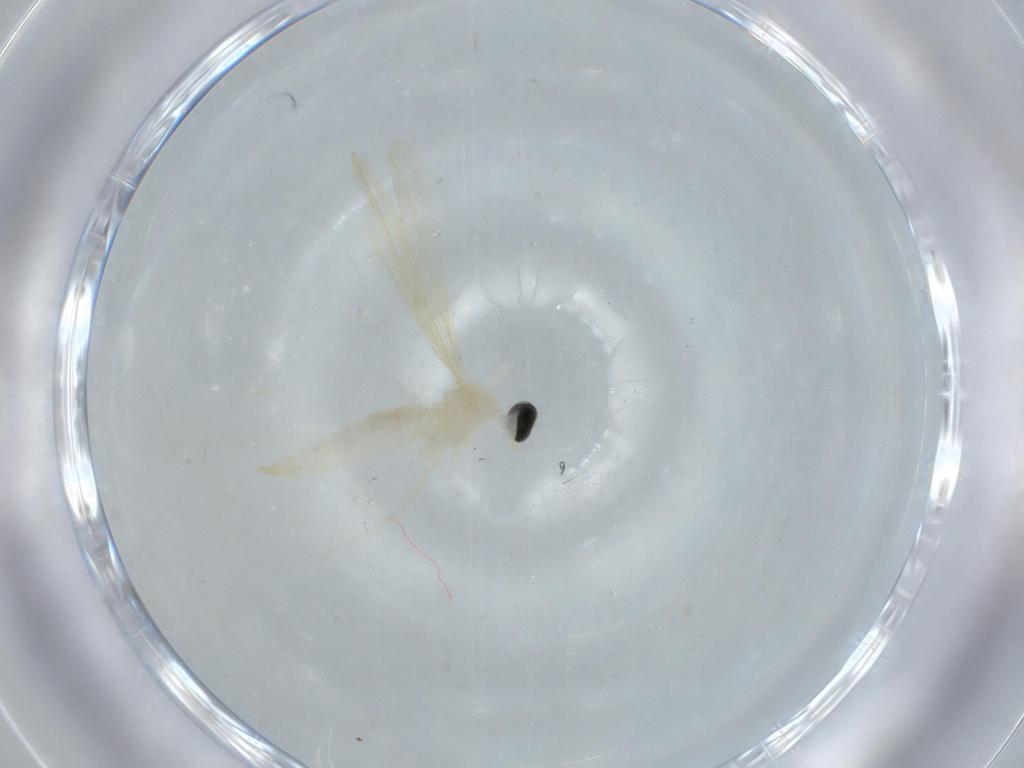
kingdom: Animalia
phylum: Arthropoda
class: Insecta
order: Diptera
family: Cecidomyiidae
